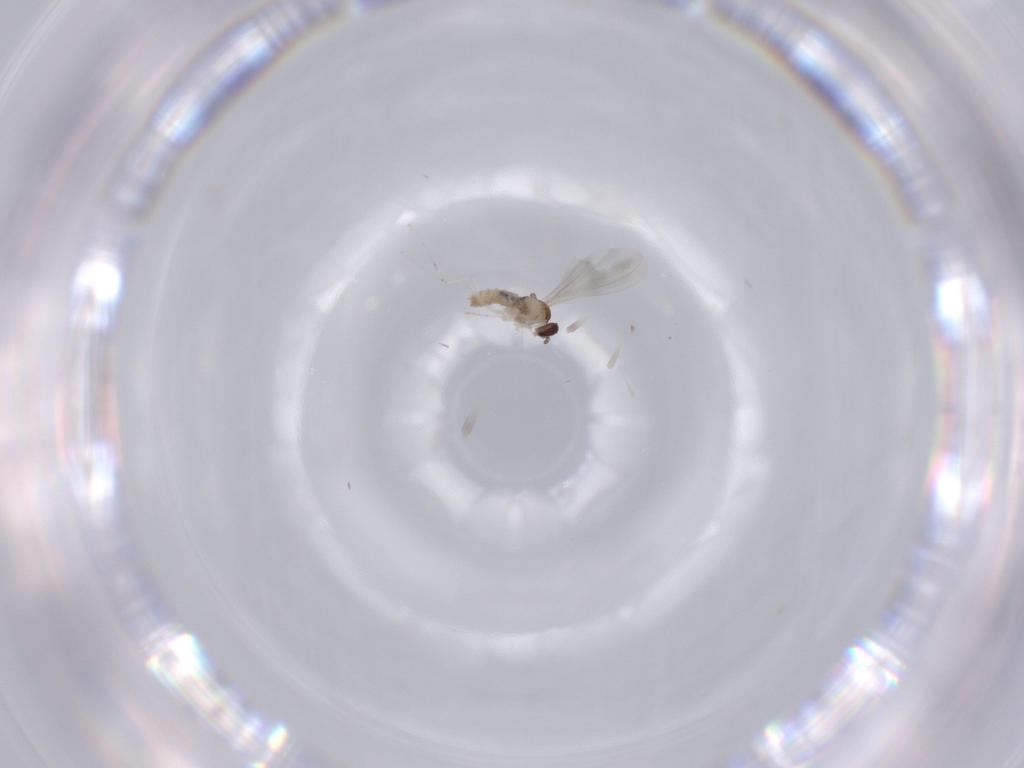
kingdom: Animalia
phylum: Arthropoda
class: Insecta
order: Diptera
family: Cecidomyiidae
